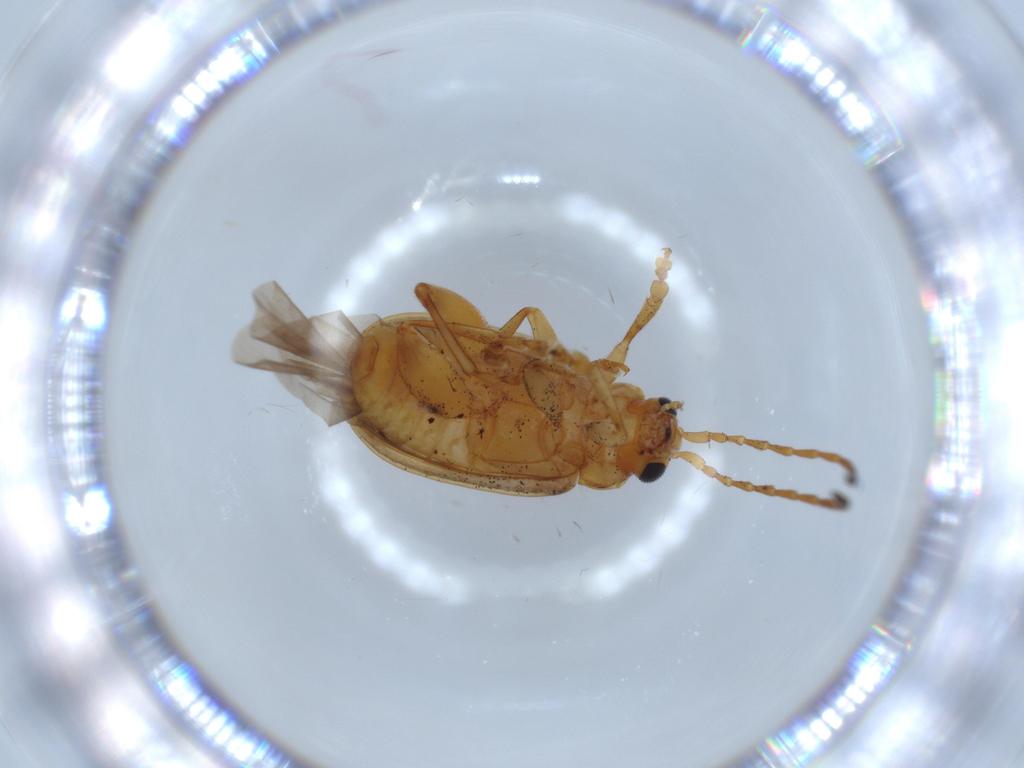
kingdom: Animalia
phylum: Arthropoda
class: Insecta
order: Coleoptera
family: Chrysomelidae
